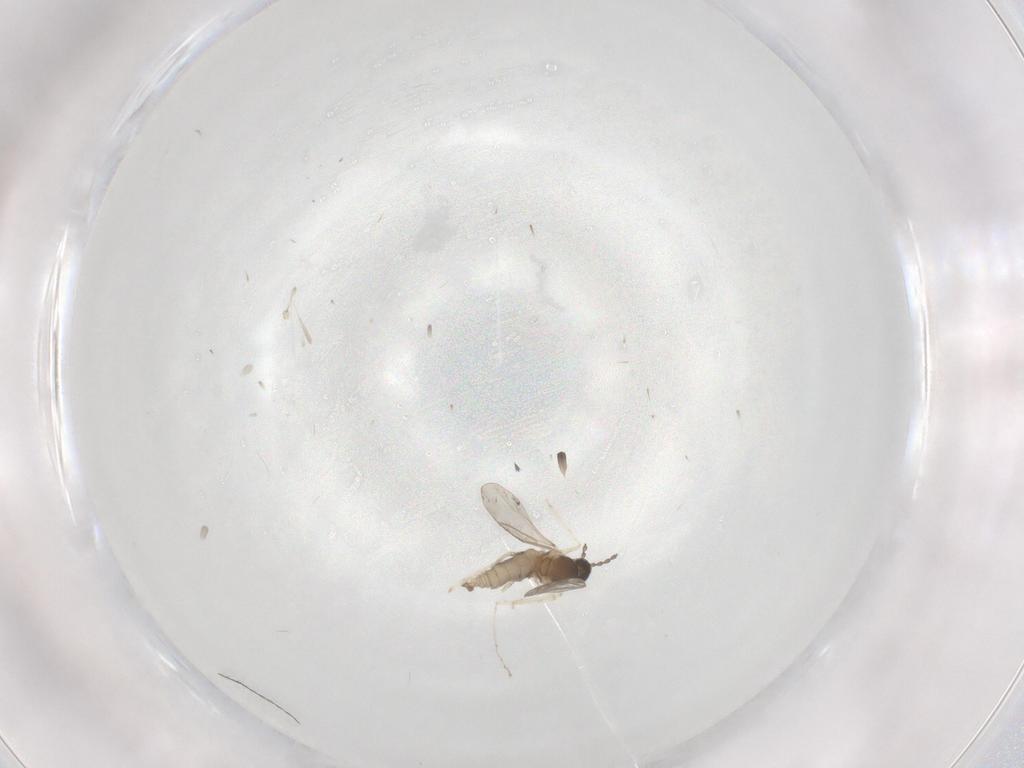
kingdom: Animalia
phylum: Arthropoda
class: Insecta
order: Diptera
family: Cecidomyiidae
